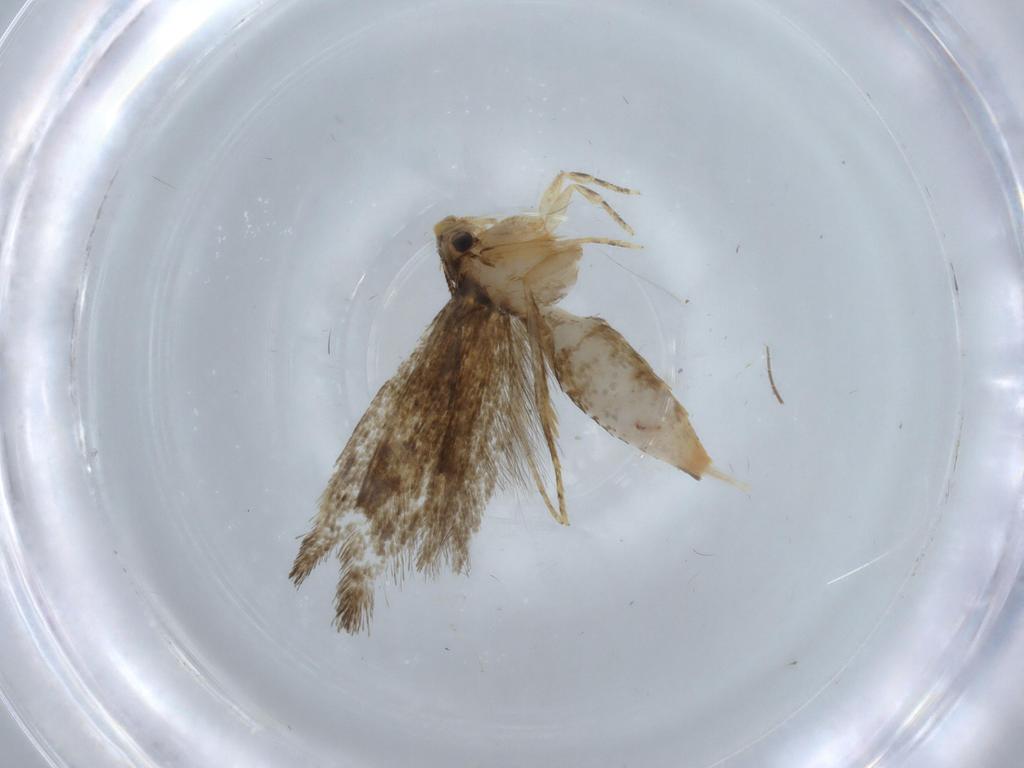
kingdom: Animalia
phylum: Arthropoda
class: Insecta
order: Lepidoptera
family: Tineidae
